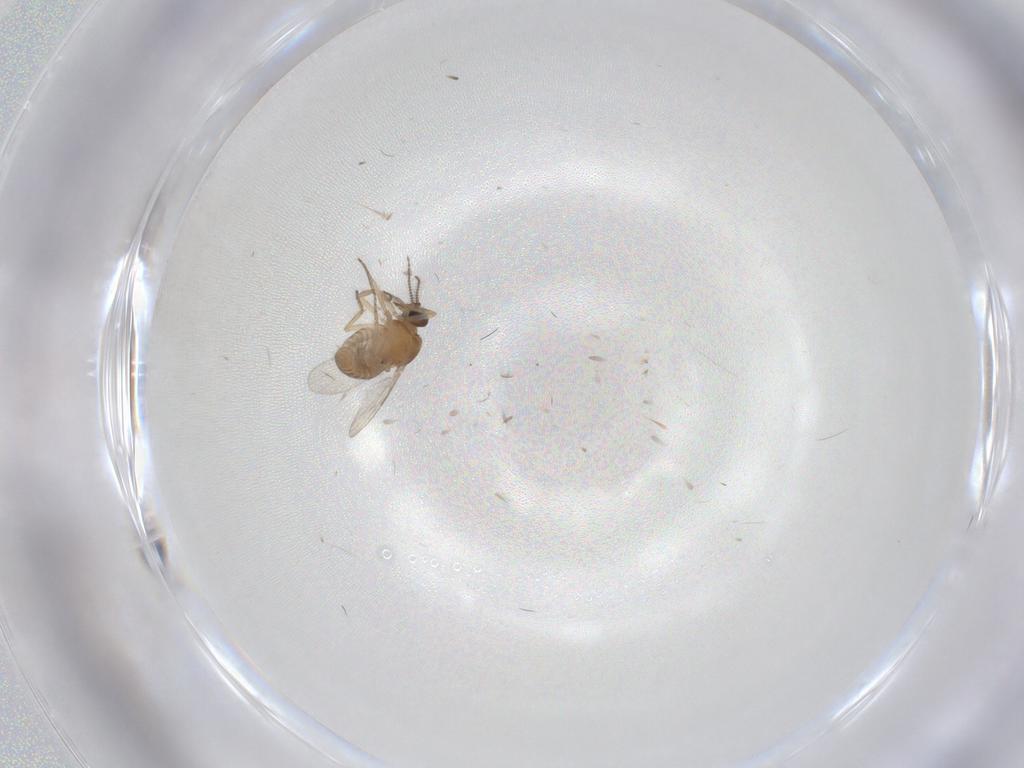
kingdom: Animalia
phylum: Arthropoda
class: Insecta
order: Diptera
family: Ceratopogonidae
